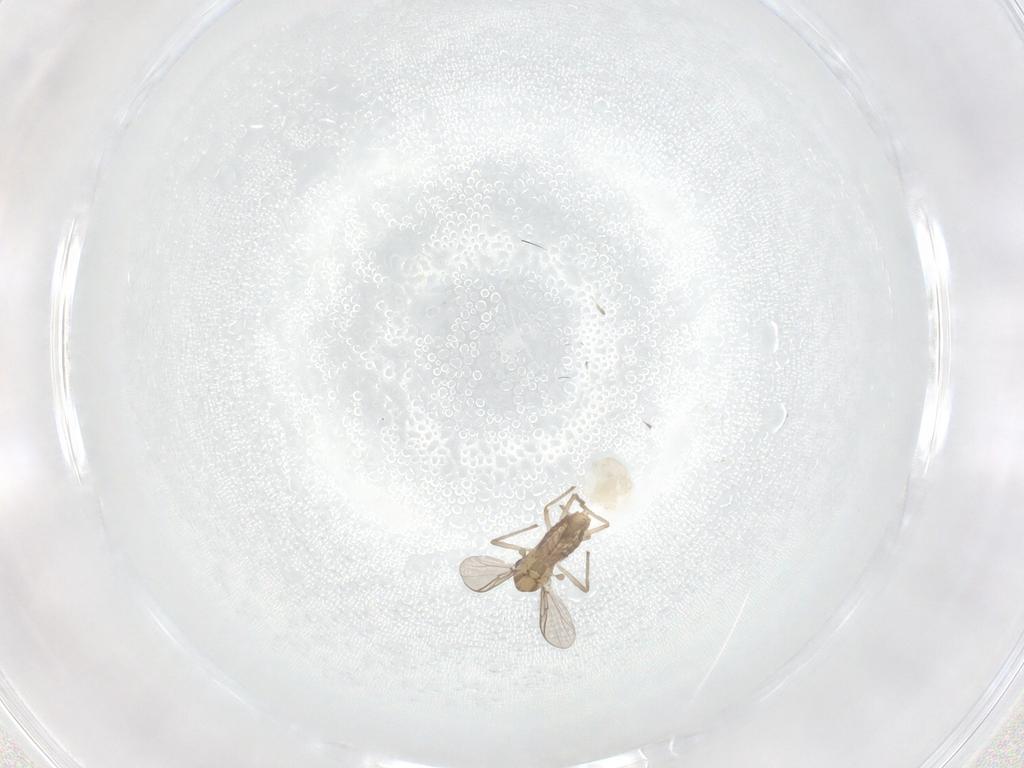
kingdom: Animalia
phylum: Arthropoda
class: Insecta
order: Diptera
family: Chironomidae
